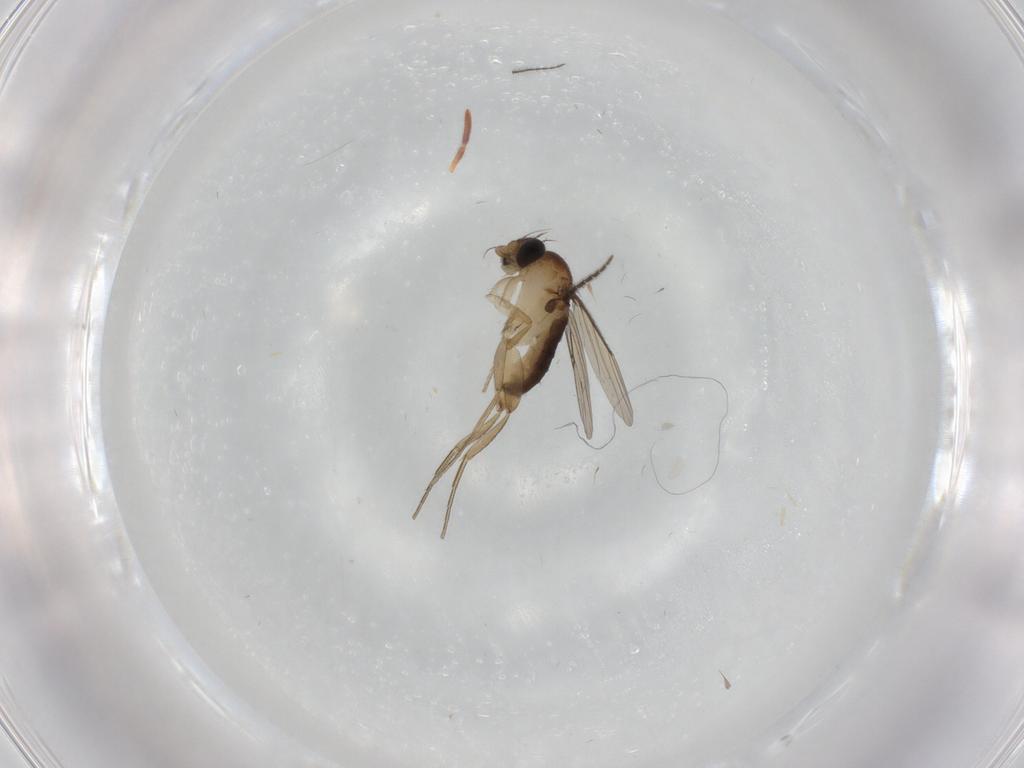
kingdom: Animalia
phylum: Arthropoda
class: Insecta
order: Diptera
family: Phoridae
